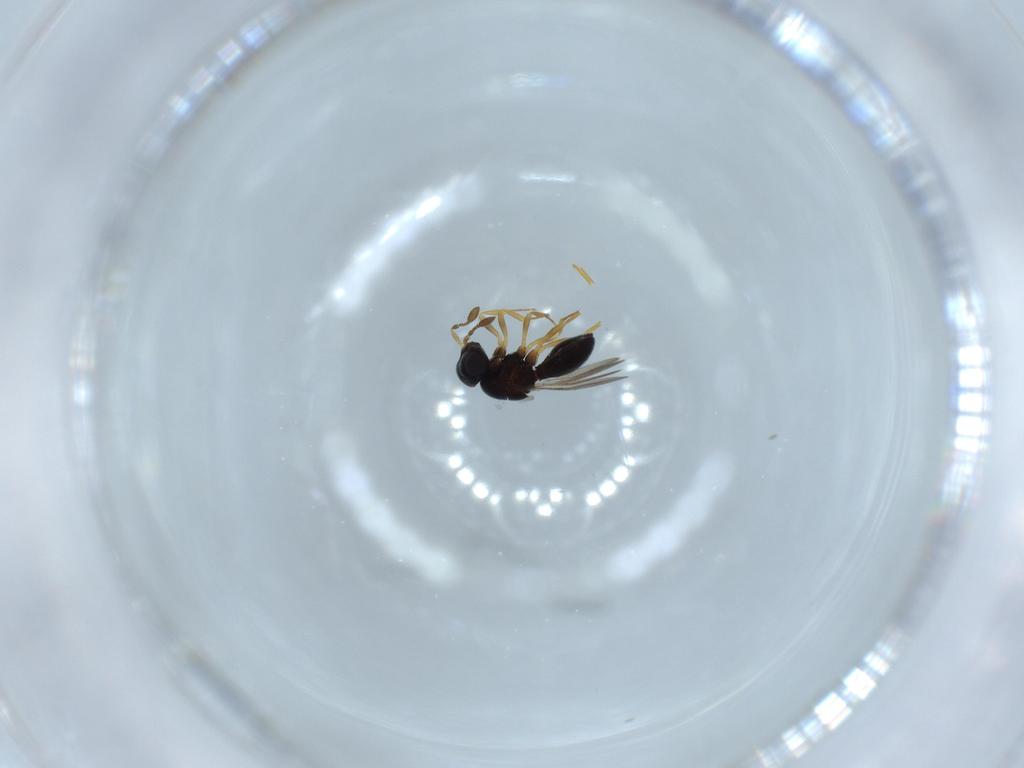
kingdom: Animalia
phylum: Arthropoda
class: Insecta
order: Hymenoptera
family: Scelionidae
